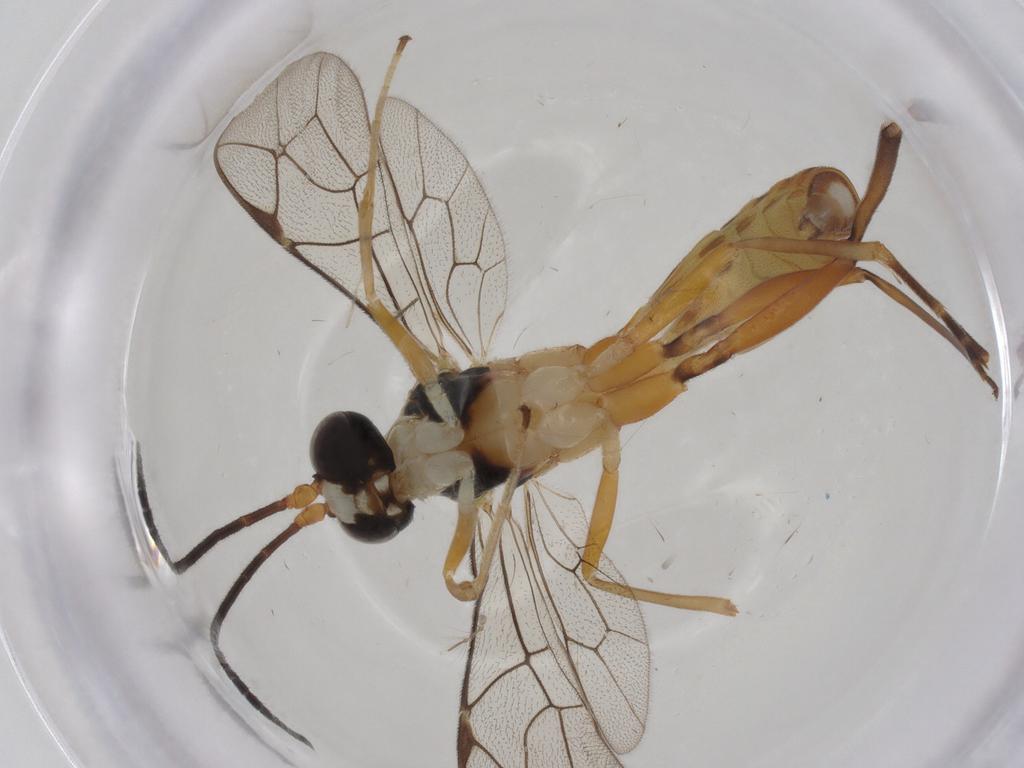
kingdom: Animalia
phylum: Arthropoda
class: Insecta
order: Hymenoptera
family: Ichneumonidae
